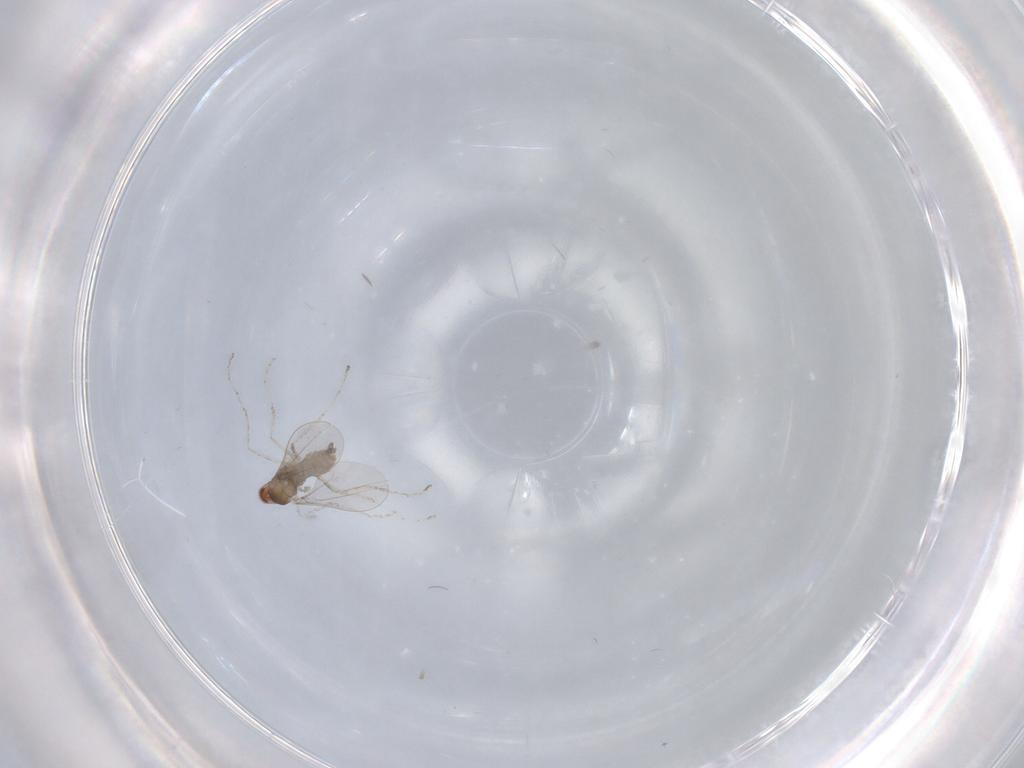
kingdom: Animalia
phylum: Arthropoda
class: Insecta
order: Diptera
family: Cecidomyiidae
